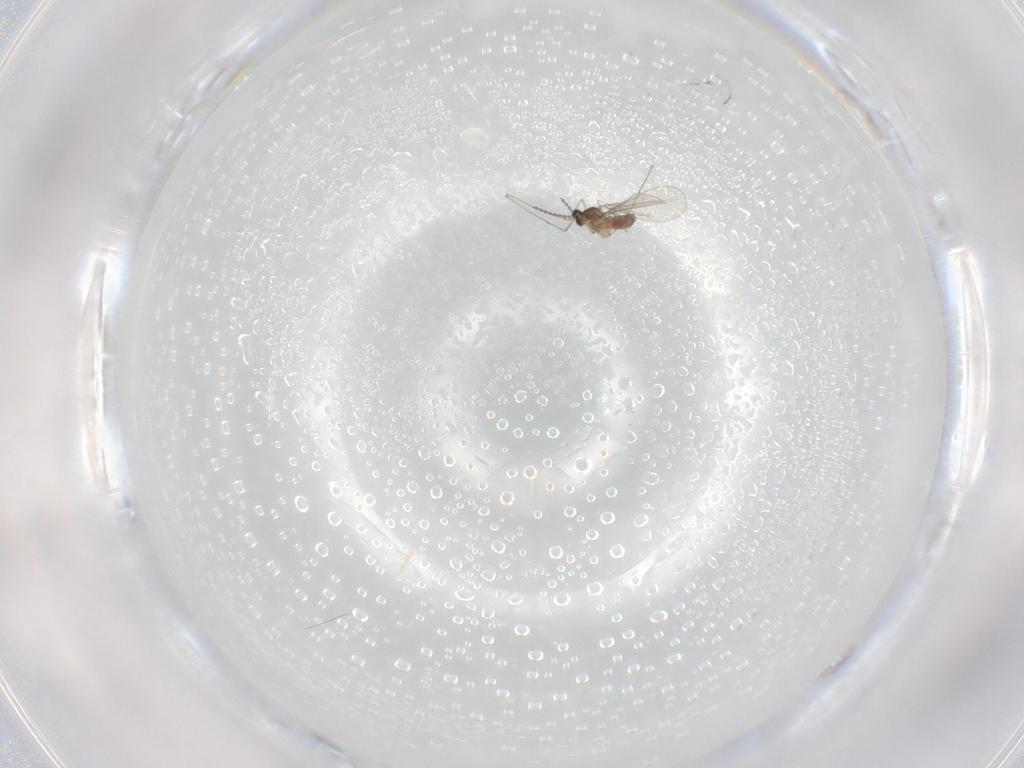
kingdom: Animalia
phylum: Arthropoda
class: Insecta
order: Diptera
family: Cecidomyiidae
